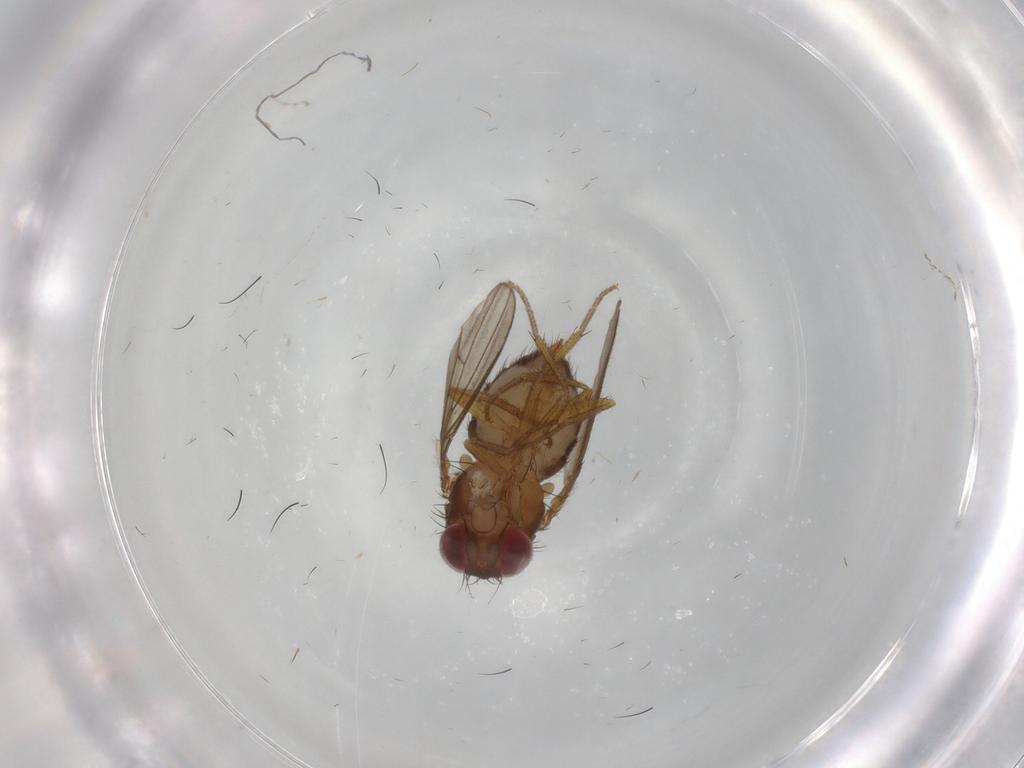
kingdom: Animalia
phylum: Arthropoda
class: Insecta
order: Diptera
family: Drosophilidae
